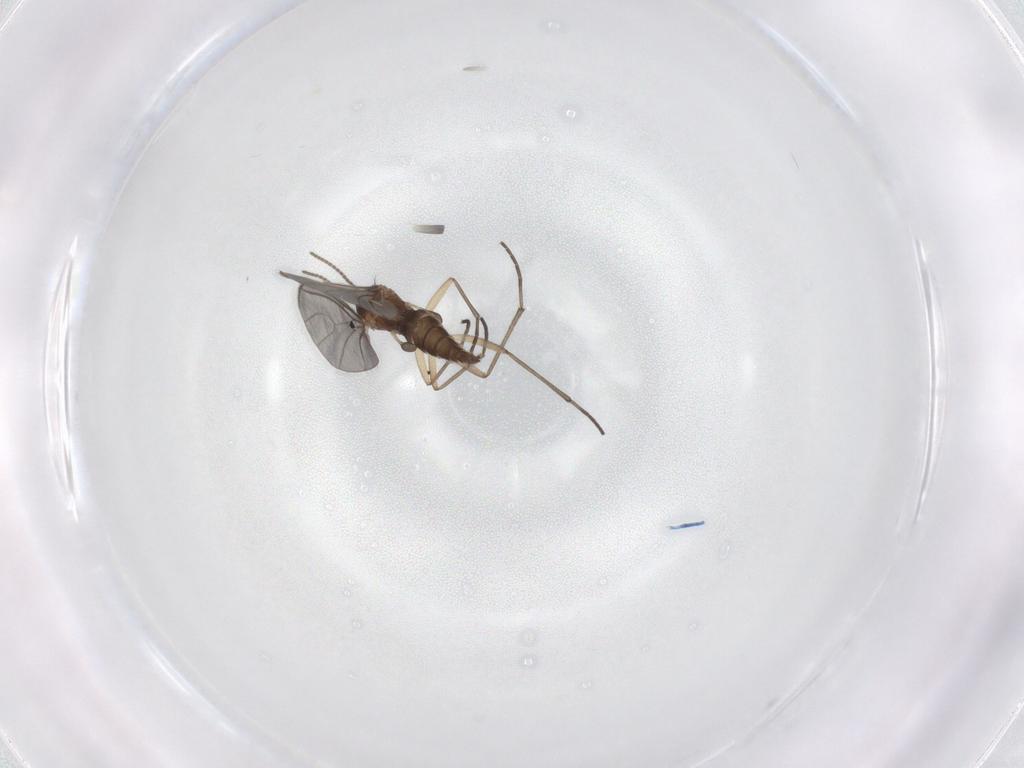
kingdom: Animalia
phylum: Arthropoda
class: Insecta
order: Diptera
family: Sciaridae
